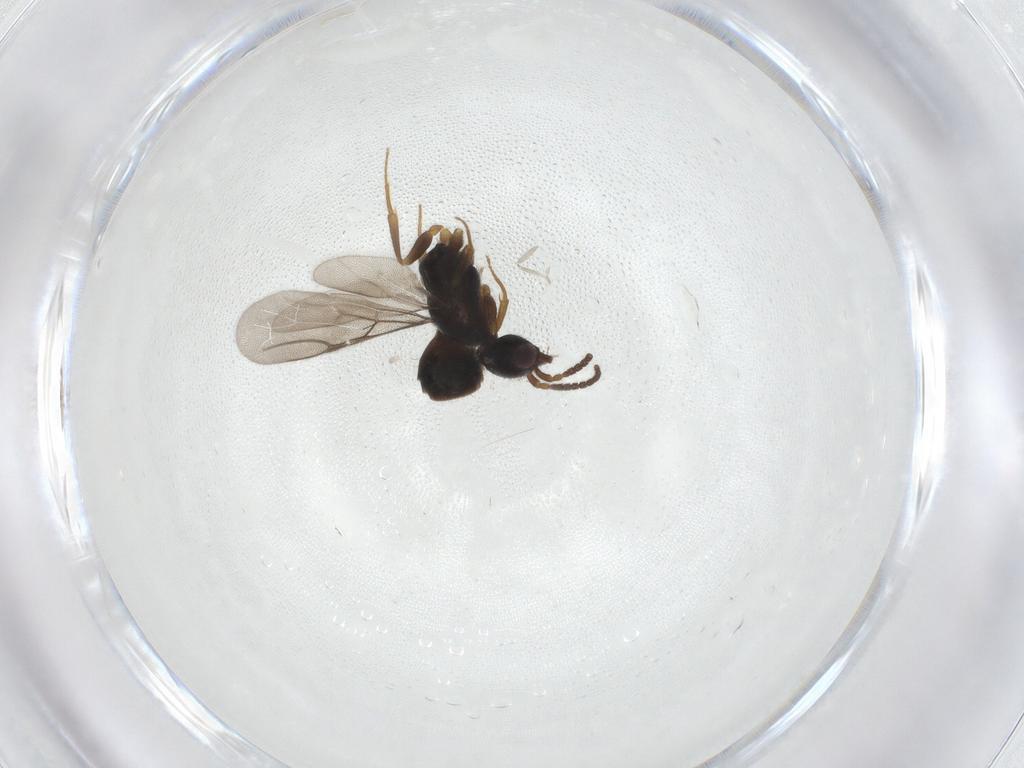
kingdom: Animalia
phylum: Arthropoda
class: Insecta
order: Hymenoptera
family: Bethylidae
